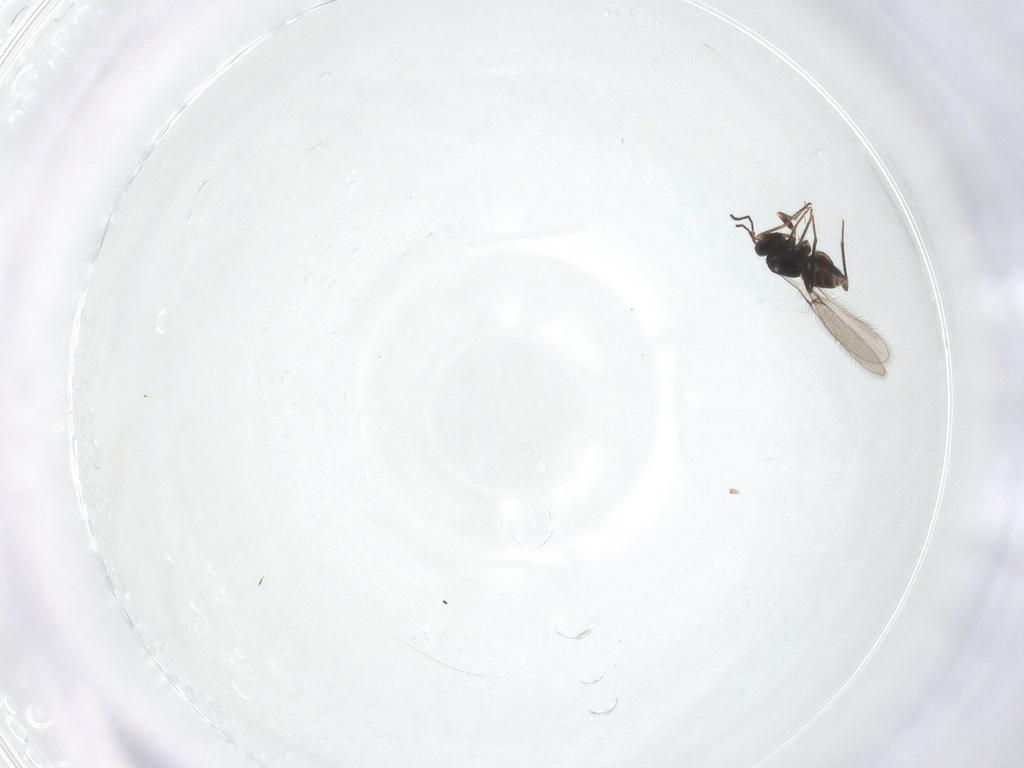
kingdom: Animalia
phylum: Arthropoda
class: Insecta
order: Hymenoptera
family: Mymaridae
